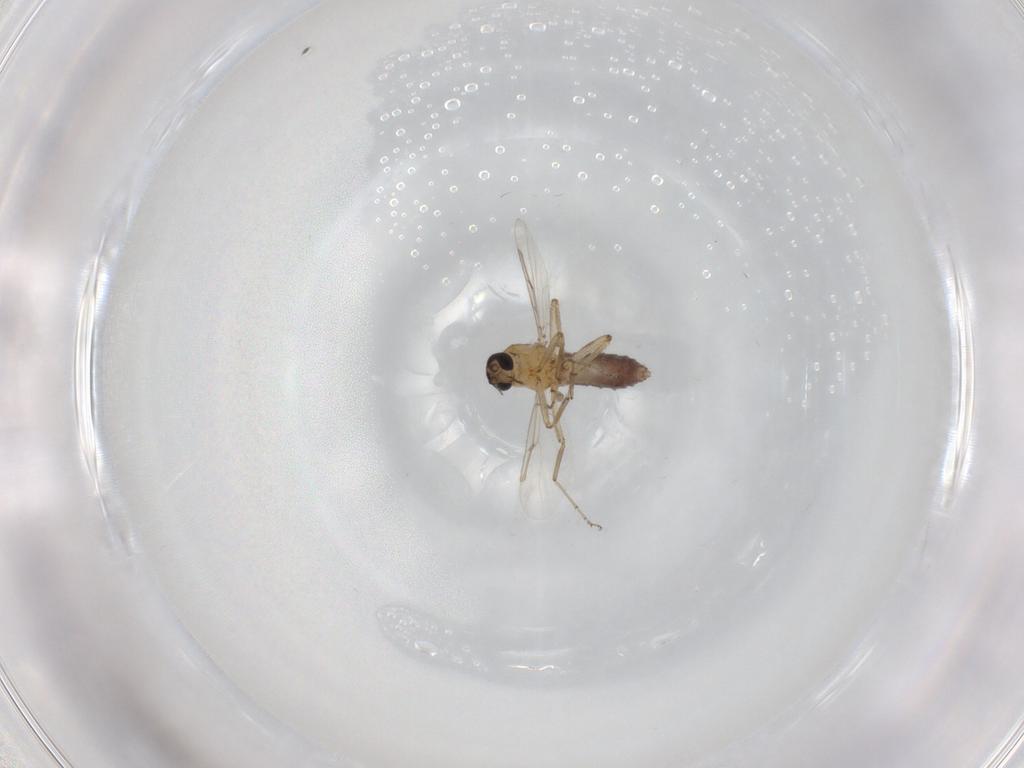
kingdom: Animalia
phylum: Arthropoda
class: Insecta
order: Diptera
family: Ceratopogonidae
